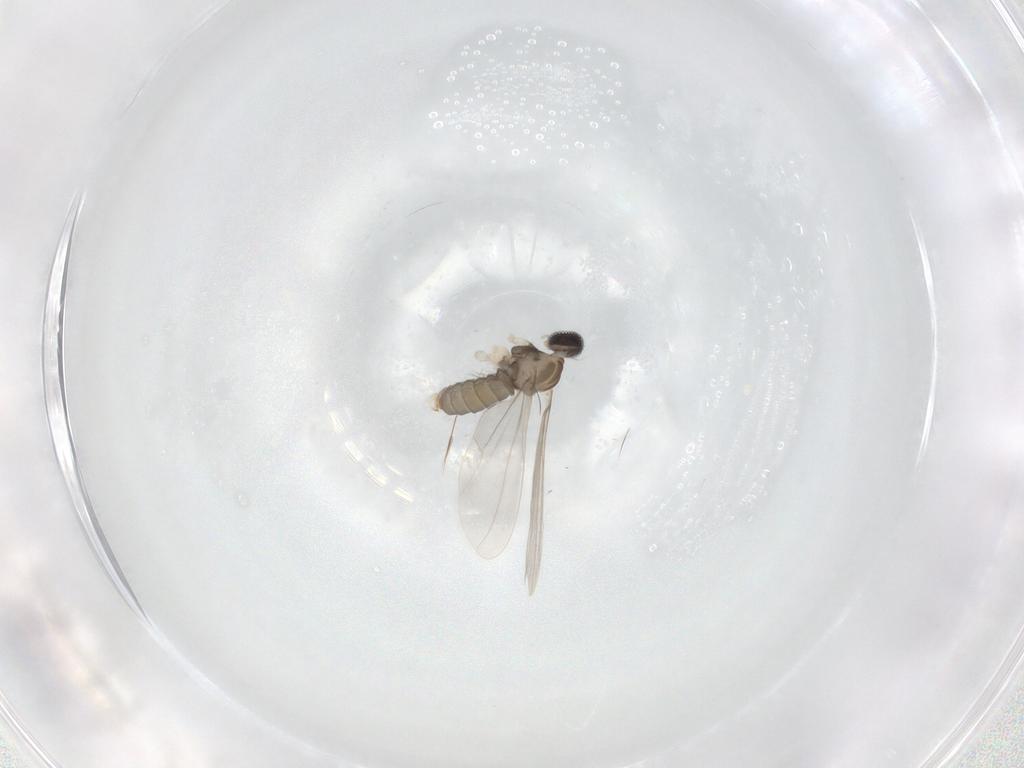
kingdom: Animalia
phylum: Arthropoda
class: Insecta
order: Diptera
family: Cecidomyiidae
